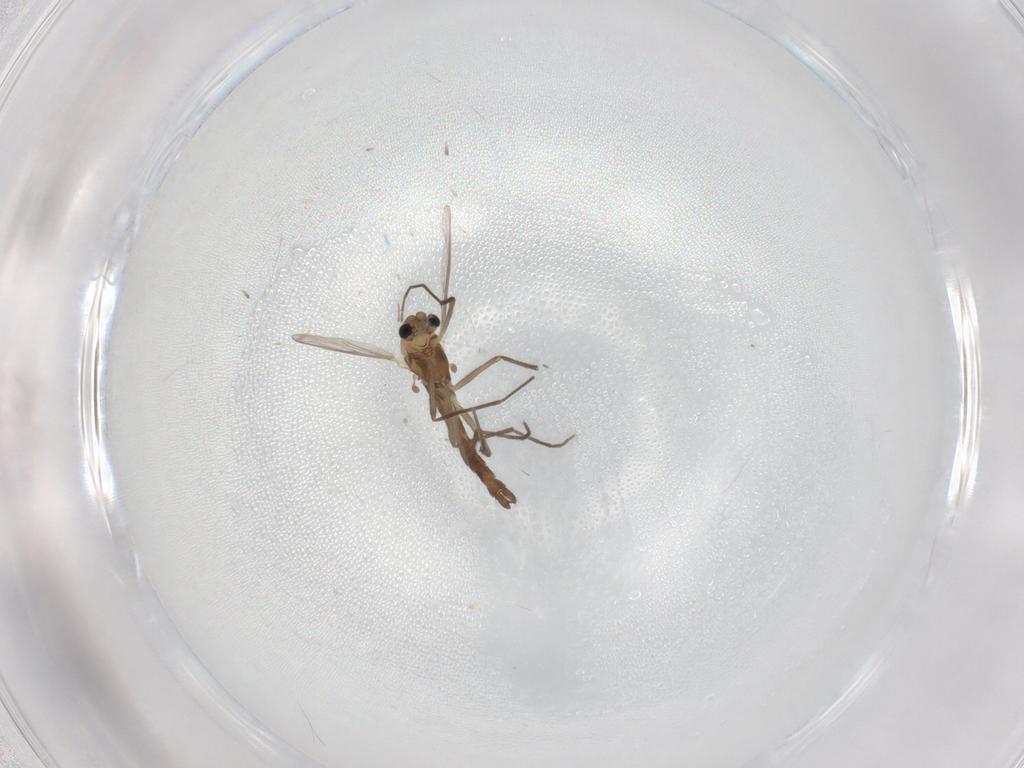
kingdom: Animalia
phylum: Arthropoda
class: Insecta
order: Diptera
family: Chironomidae
